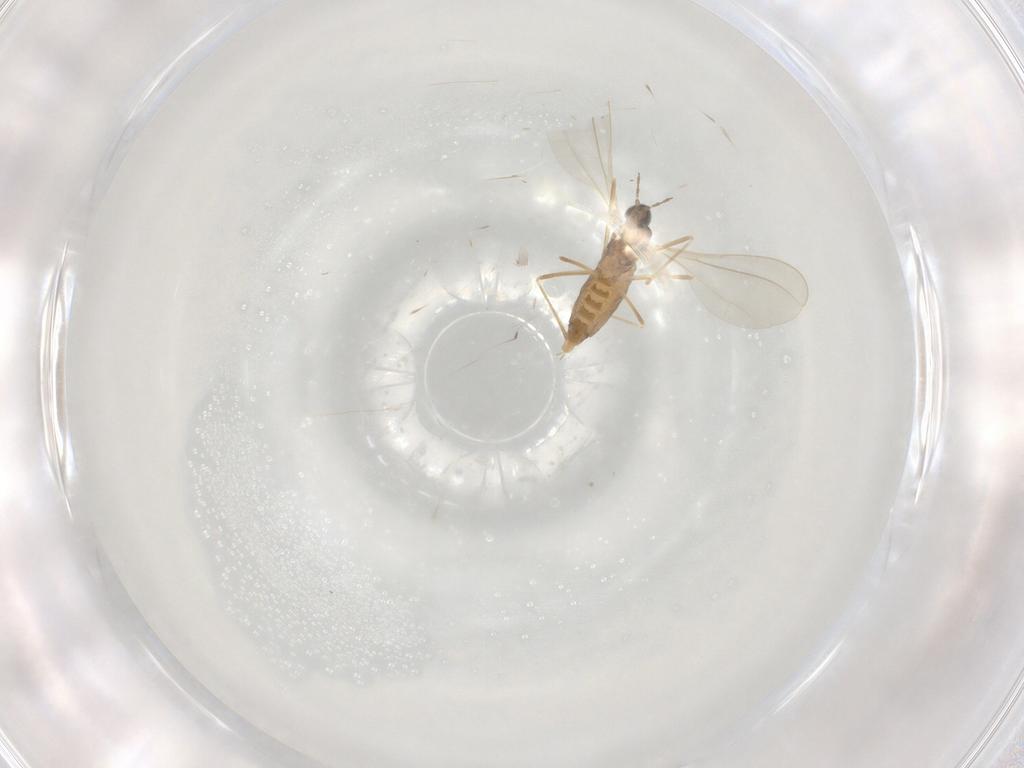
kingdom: Animalia
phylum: Arthropoda
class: Insecta
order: Diptera
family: Cecidomyiidae
